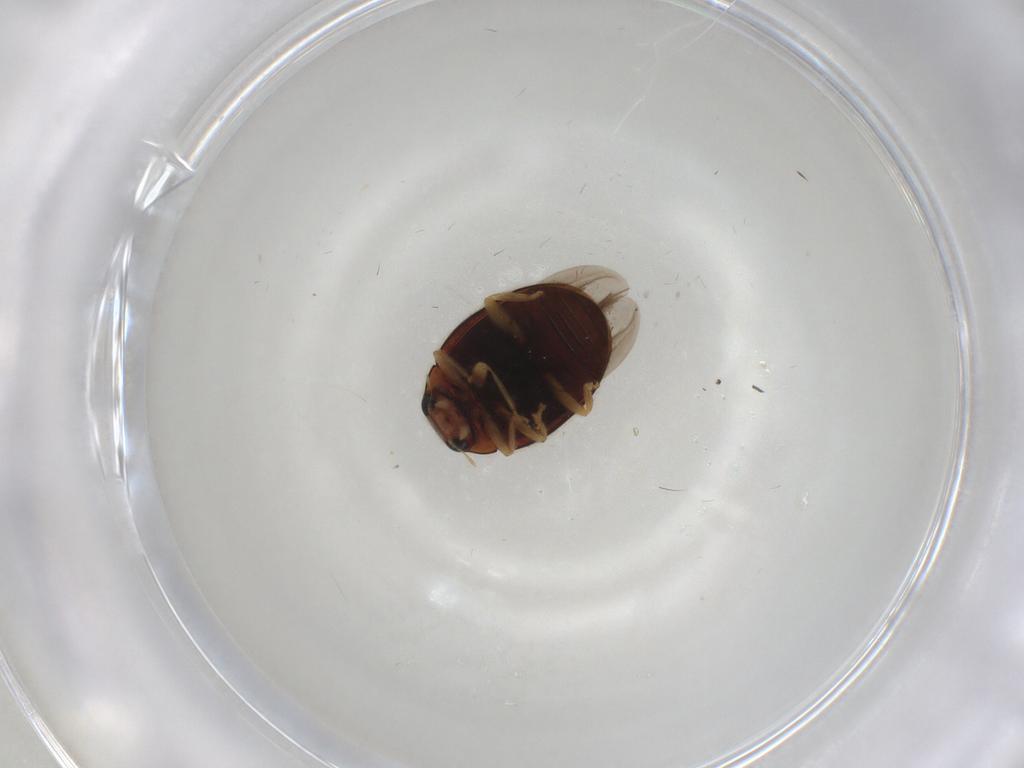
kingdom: Animalia
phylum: Arthropoda
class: Insecta
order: Coleoptera
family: Coccinellidae
